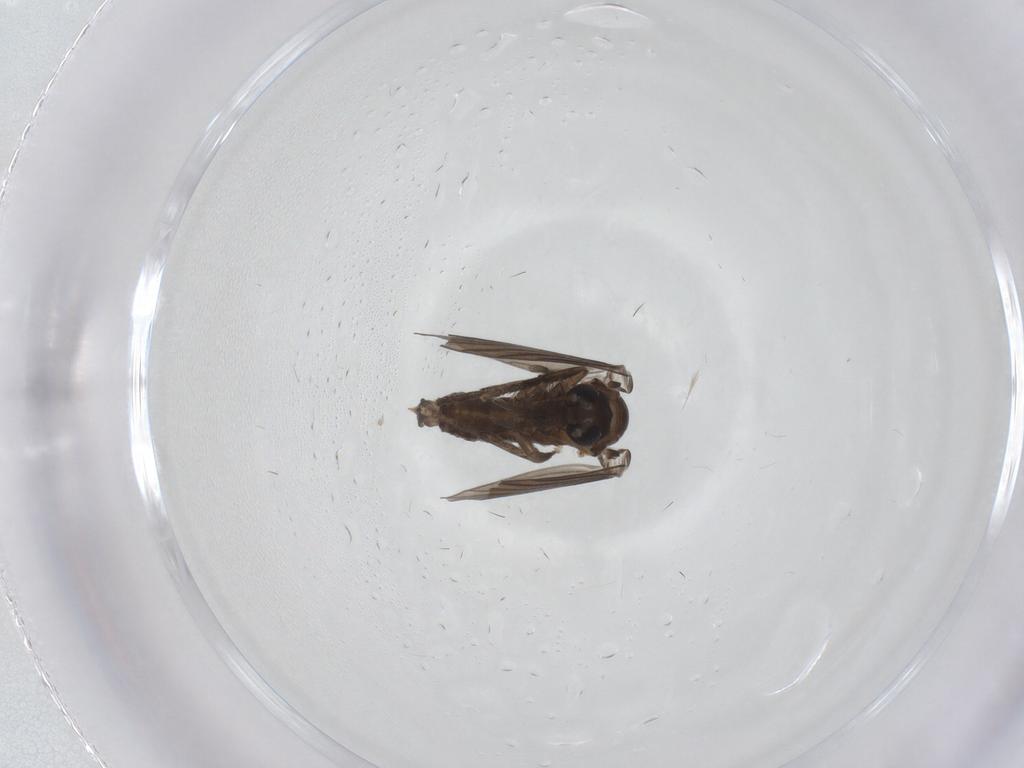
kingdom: Animalia
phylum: Arthropoda
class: Insecta
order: Diptera
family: Psychodidae
